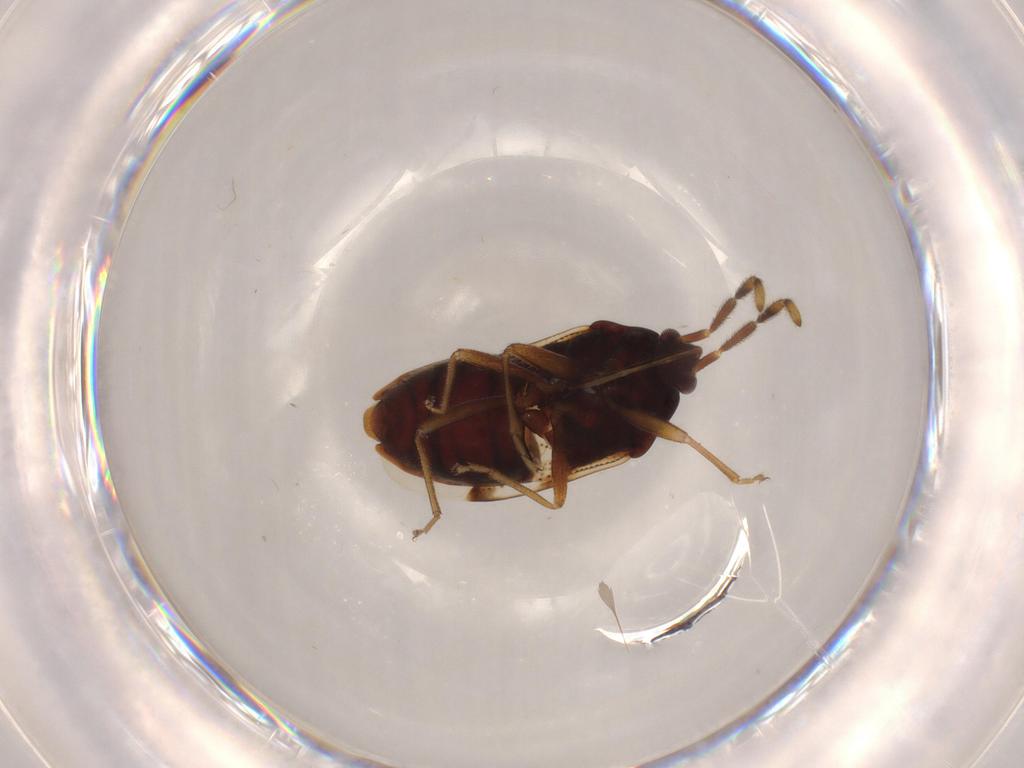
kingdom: Animalia
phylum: Arthropoda
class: Insecta
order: Hemiptera
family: Rhyparochromidae
